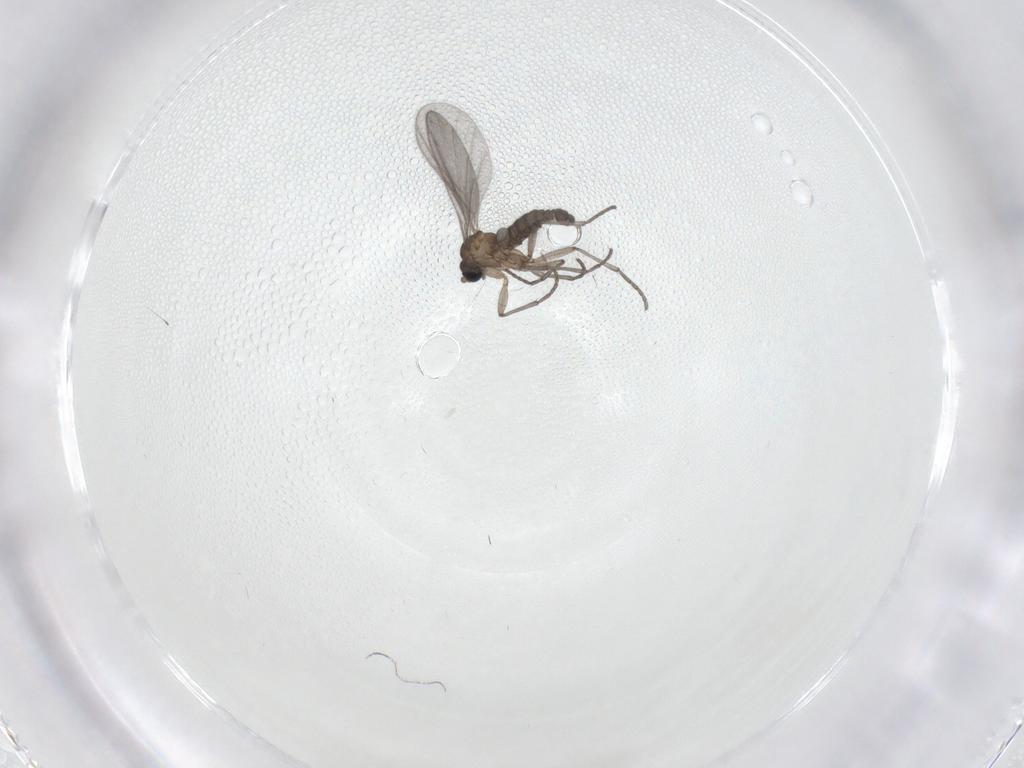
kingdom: Animalia
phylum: Arthropoda
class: Insecta
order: Diptera
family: Sciaridae
